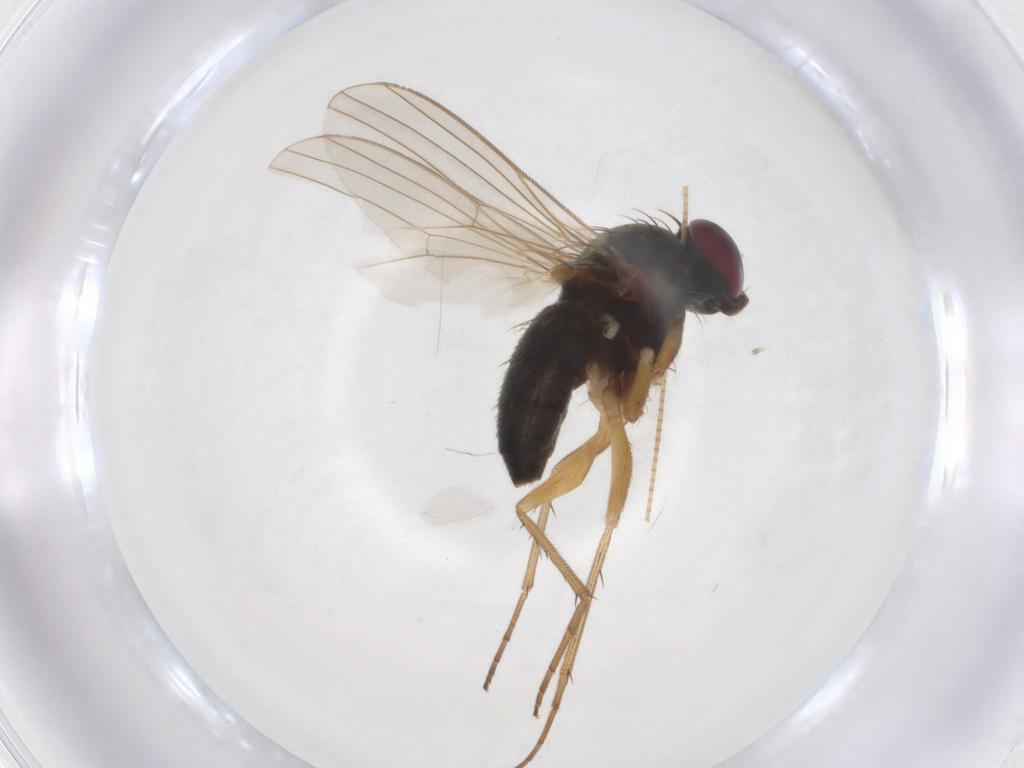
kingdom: Animalia
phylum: Arthropoda
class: Insecta
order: Diptera
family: Dolichopodidae
